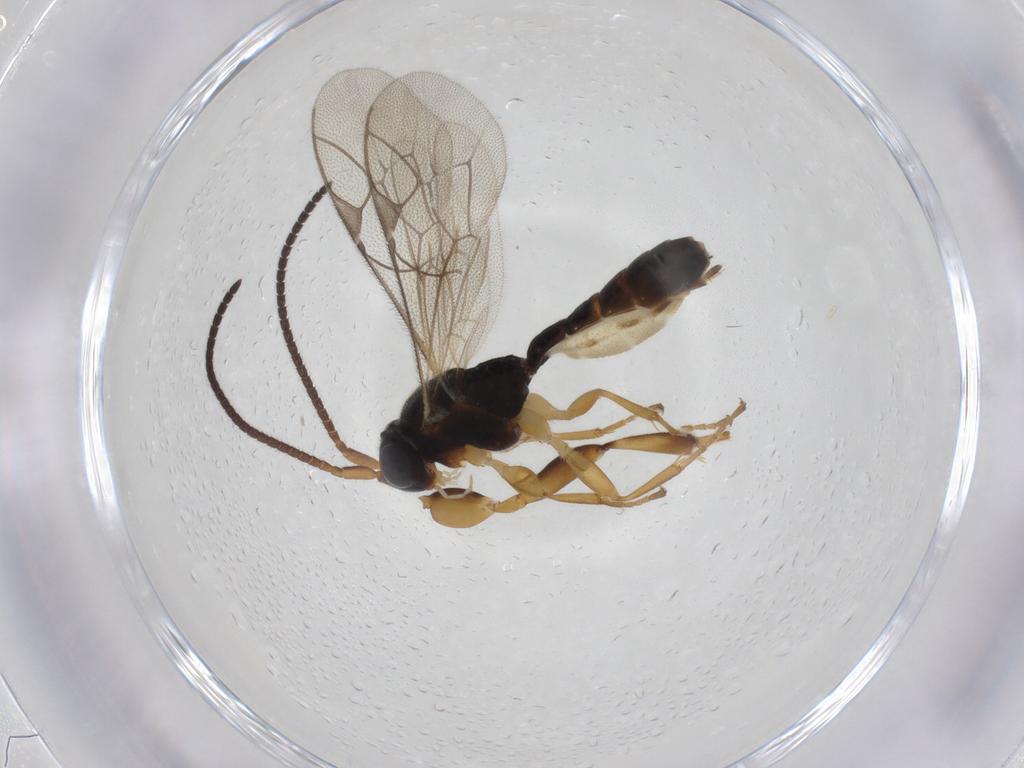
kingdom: Animalia
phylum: Arthropoda
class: Insecta
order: Hymenoptera
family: Ichneumonidae
